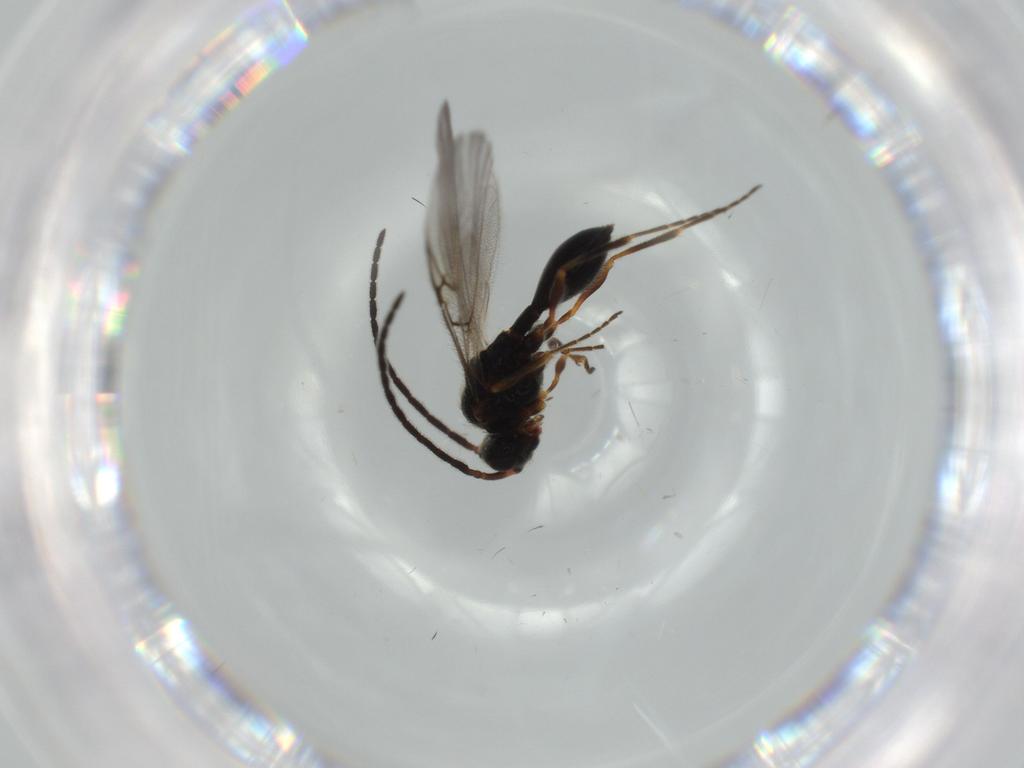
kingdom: Animalia
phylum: Arthropoda
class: Insecta
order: Hymenoptera
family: Diapriidae
